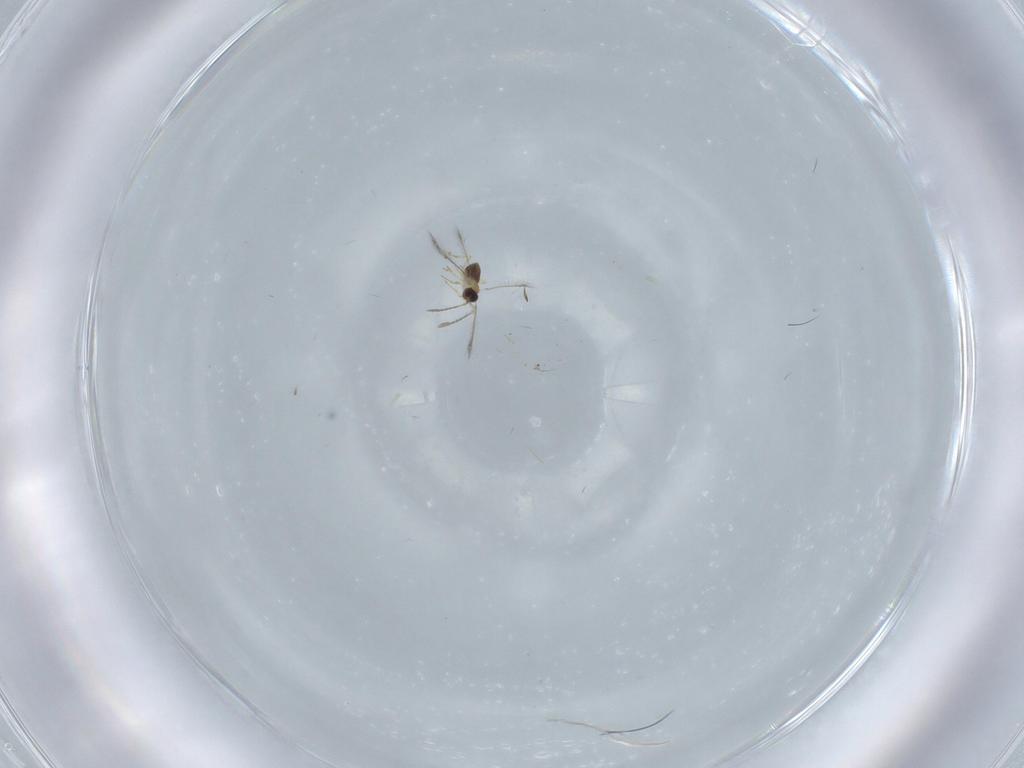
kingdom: Animalia
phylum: Arthropoda
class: Insecta
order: Hymenoptera
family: Mymaridae
